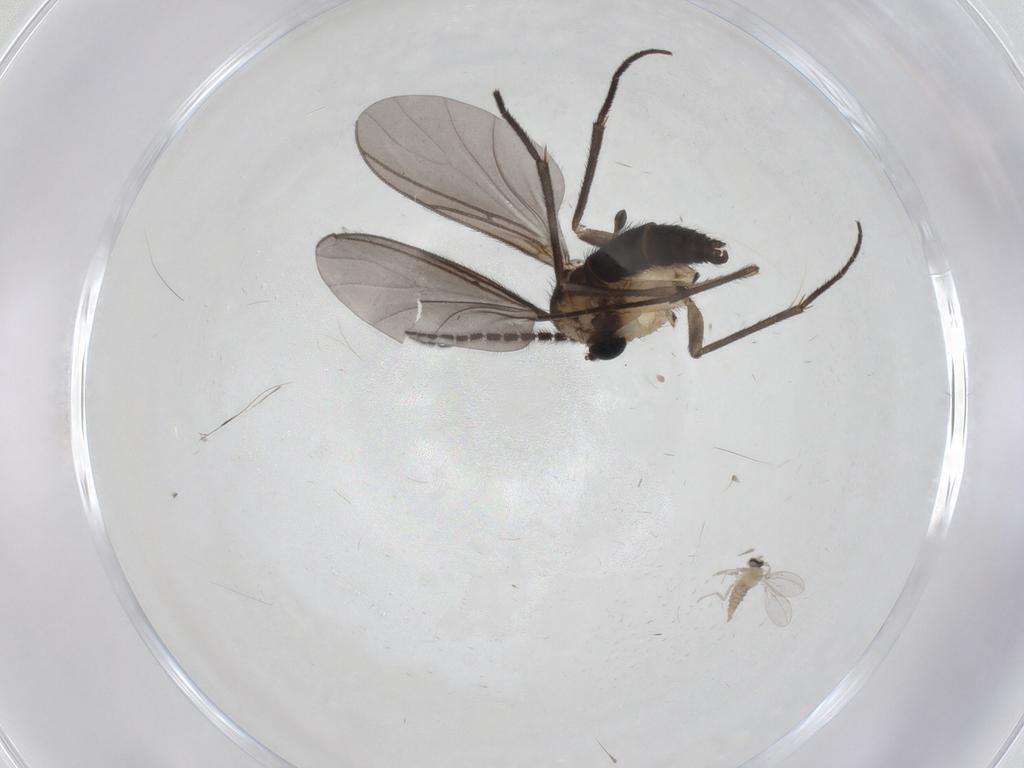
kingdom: Animalia
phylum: Arthropoda
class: Insecta
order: Diptera
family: Sciaridae
